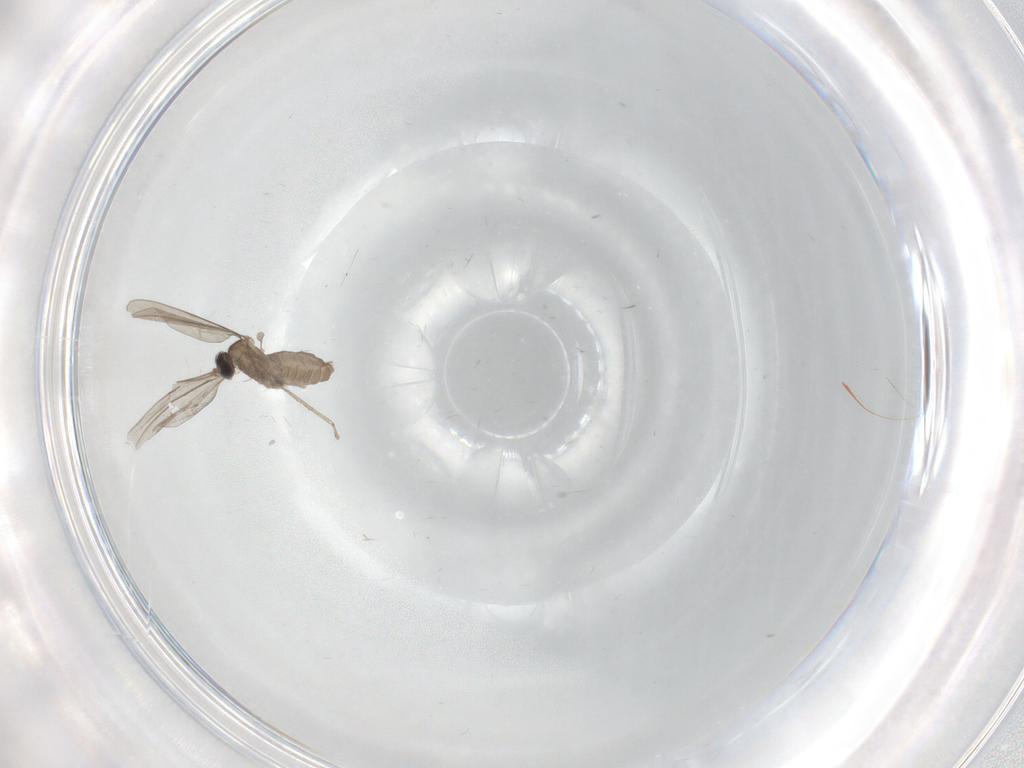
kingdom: Animalia
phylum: Arthropoda
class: Insecta
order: Diptera
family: Cecidomyiidae
